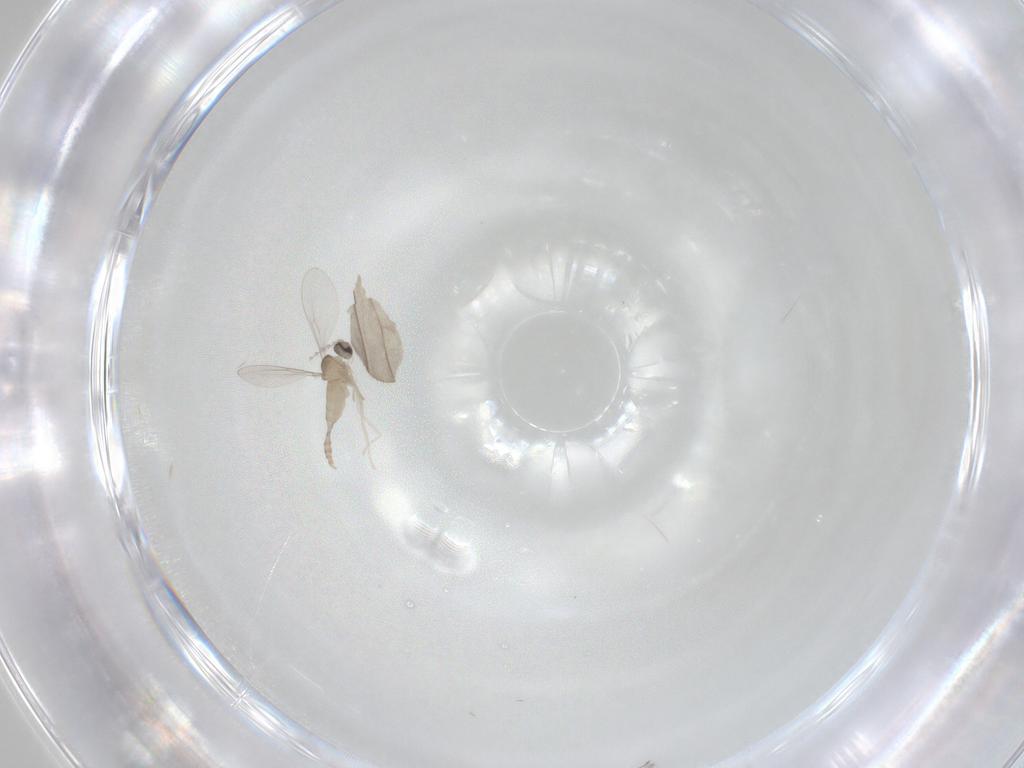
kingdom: Animalia
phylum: Arthropoda
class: Insecta
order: Diptera
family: Cecidomyiidae
